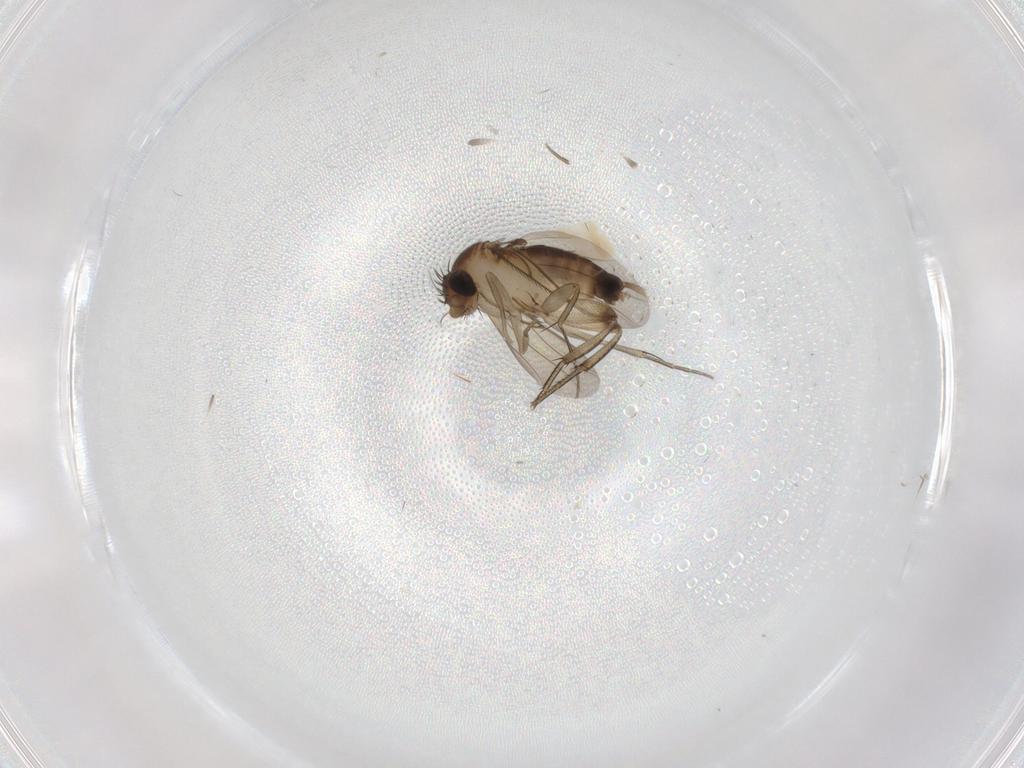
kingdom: Animalia
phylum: Arthropoda
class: Insecta
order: Diptera
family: Phoridae
